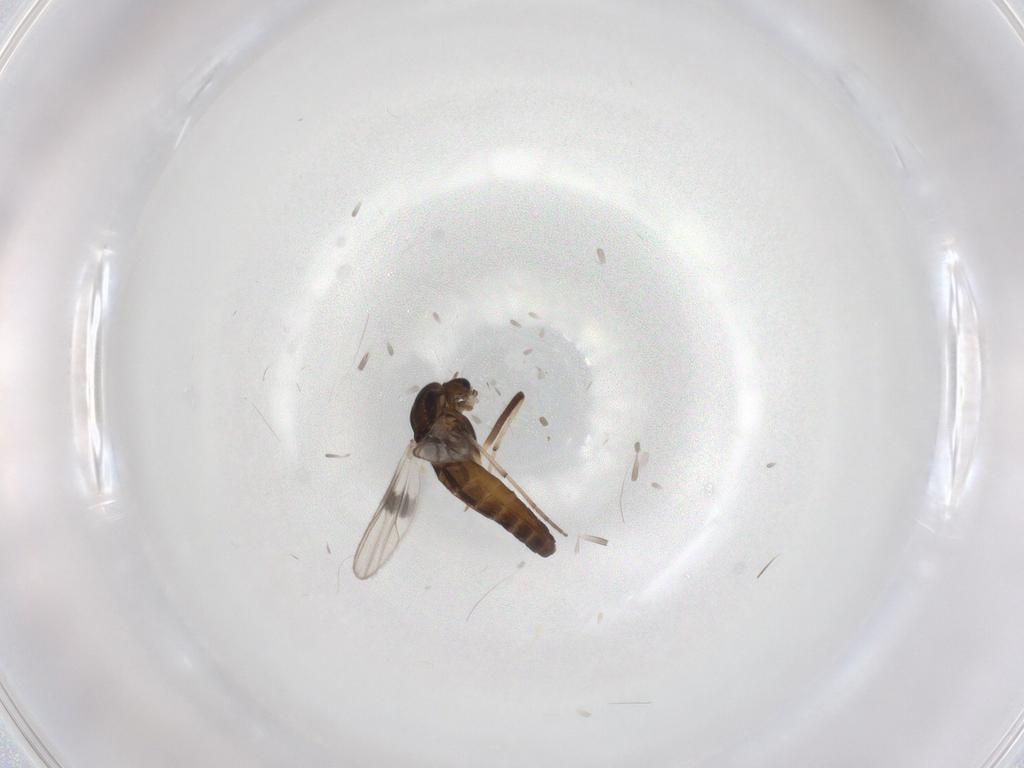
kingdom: Animalia
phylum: Arthropoda
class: Insecta
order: Diptera
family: Chironomidae
